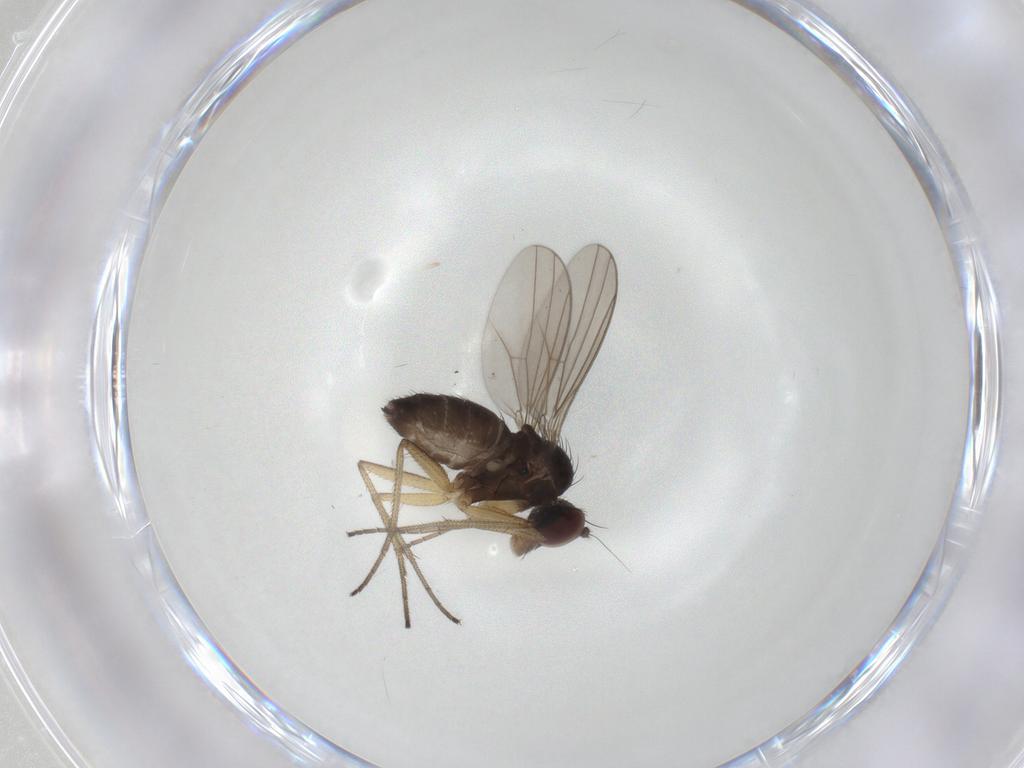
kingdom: Animalia
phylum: Arthropoda
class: Insecta
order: Diptera
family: Dolichopodidae
